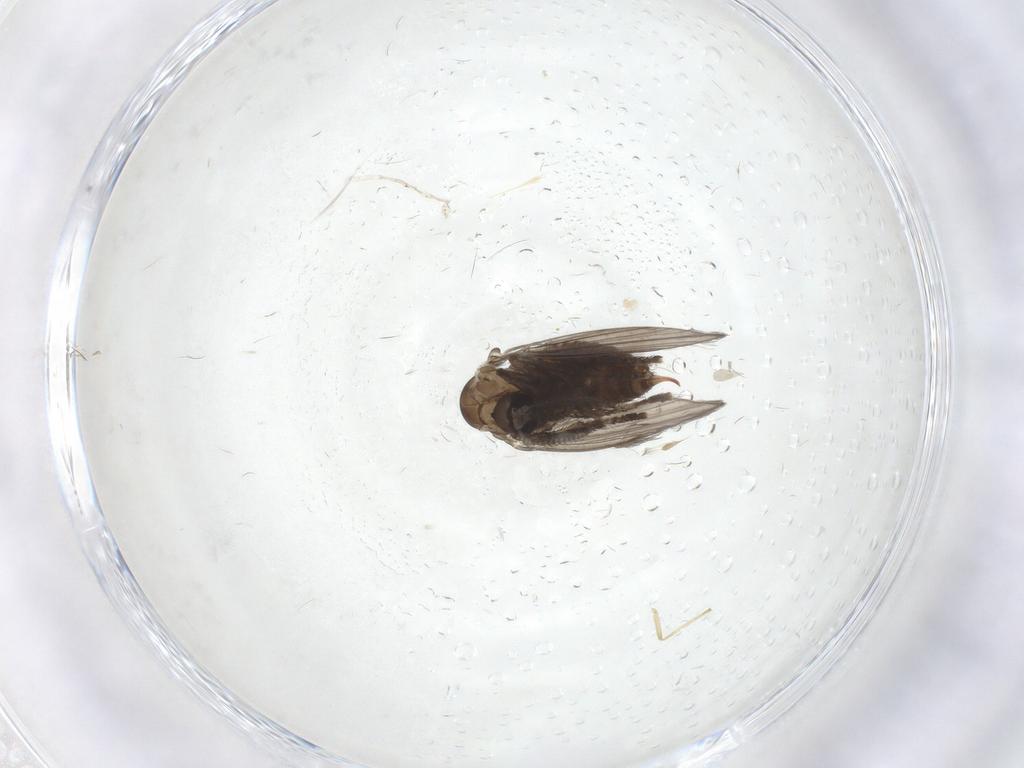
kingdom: Animalia
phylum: Arthropoda
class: Insecta
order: Diptera
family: Psychodidae
